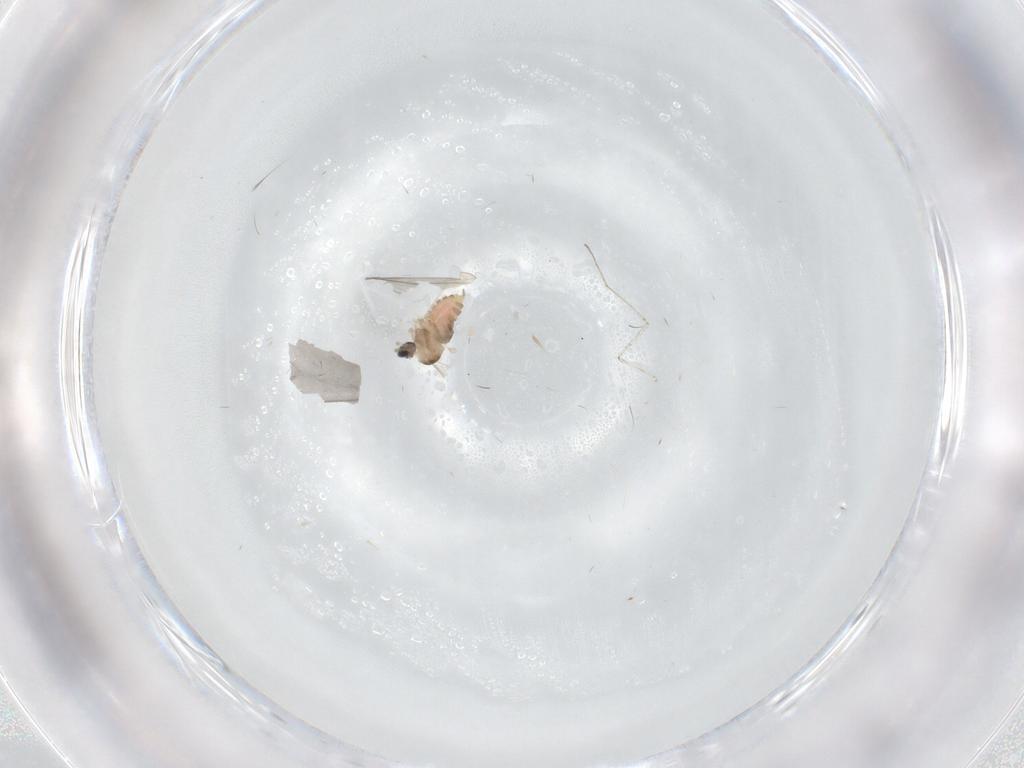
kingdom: Animalia
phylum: Arthropoda
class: Insecta
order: Diptera
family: Cecidomyiidae
